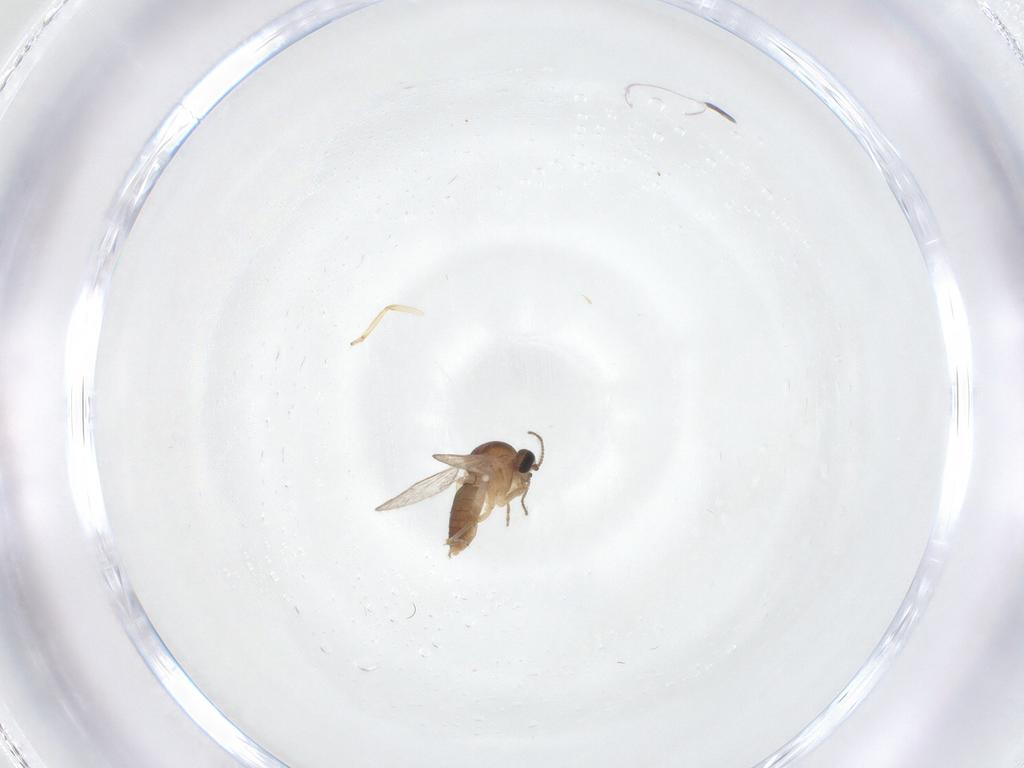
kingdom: Animalia
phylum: Arthropoda
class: Insecta
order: Diptera
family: Ceratopogonidae
